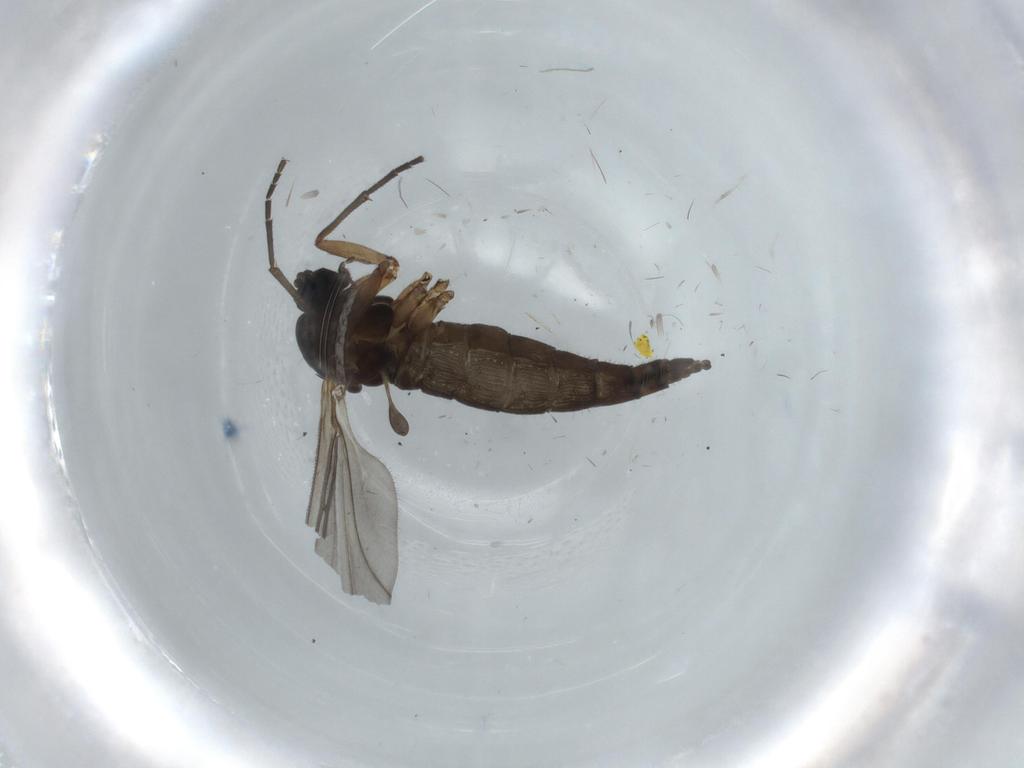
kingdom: Animalia
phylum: Arthropoda
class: Insecta
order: Diptera
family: Sciaridae
